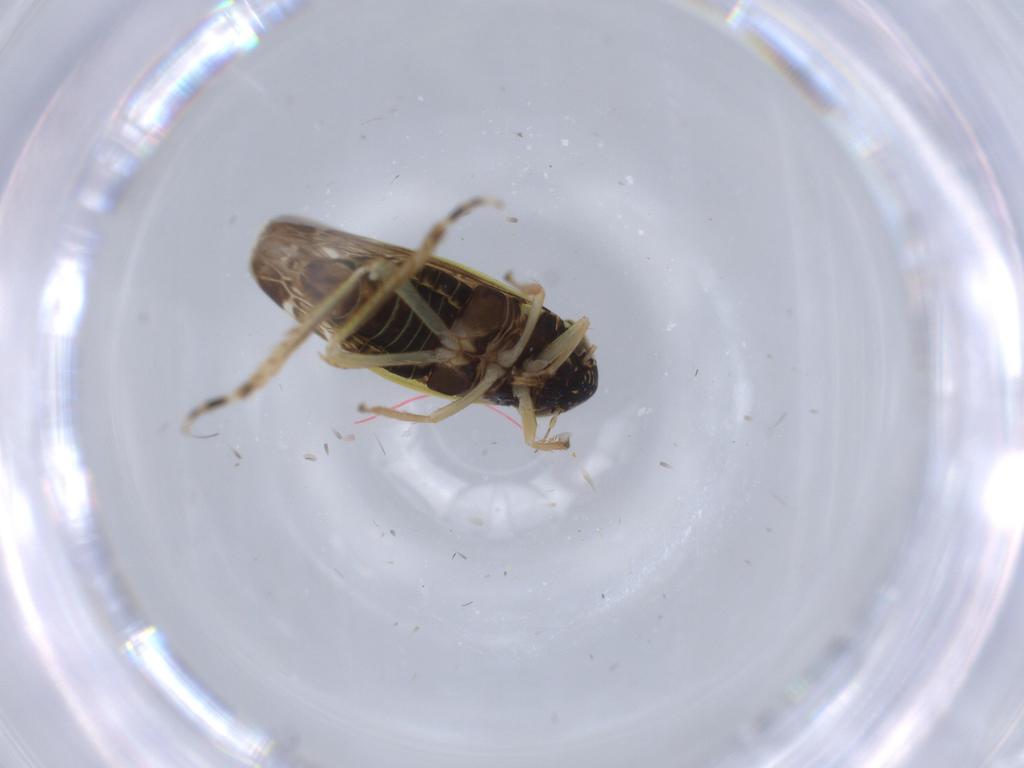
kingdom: Animalia
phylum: Arthropoda
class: Insecta
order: Hemiptera
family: Cicadellidae
